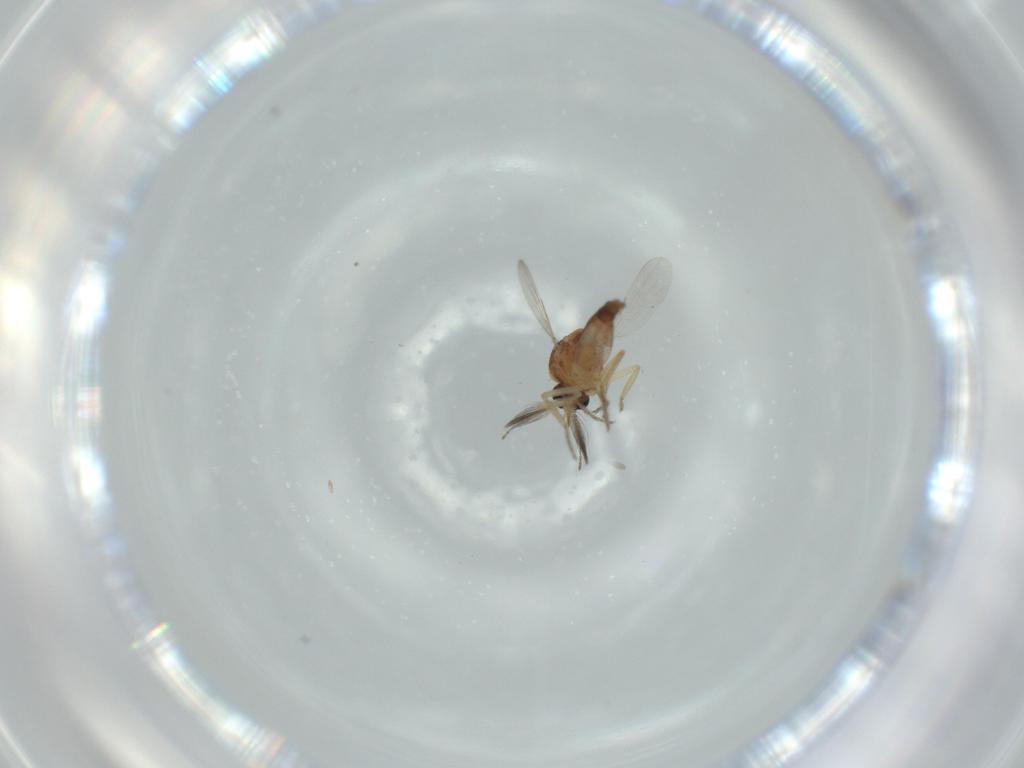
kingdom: Animalia
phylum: Arthropoda
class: Insecta
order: Diptera
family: Ceratopogonidae
